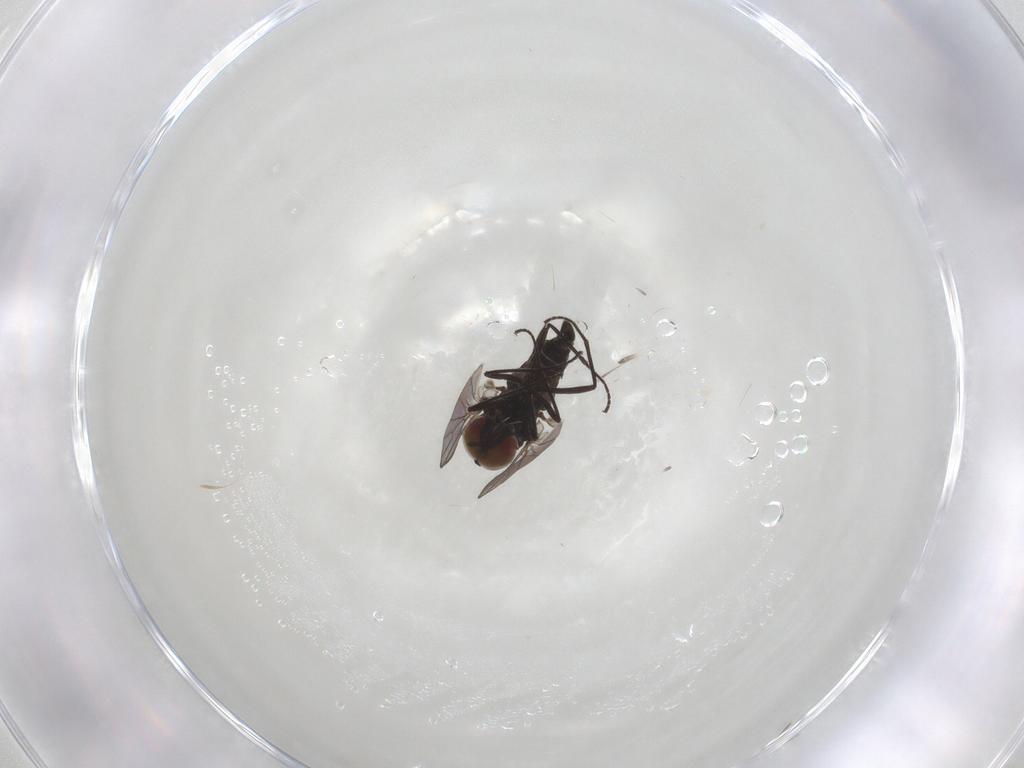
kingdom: Animalia
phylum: Arthropoda
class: Insecta
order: Diptera
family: Bombyliidae
